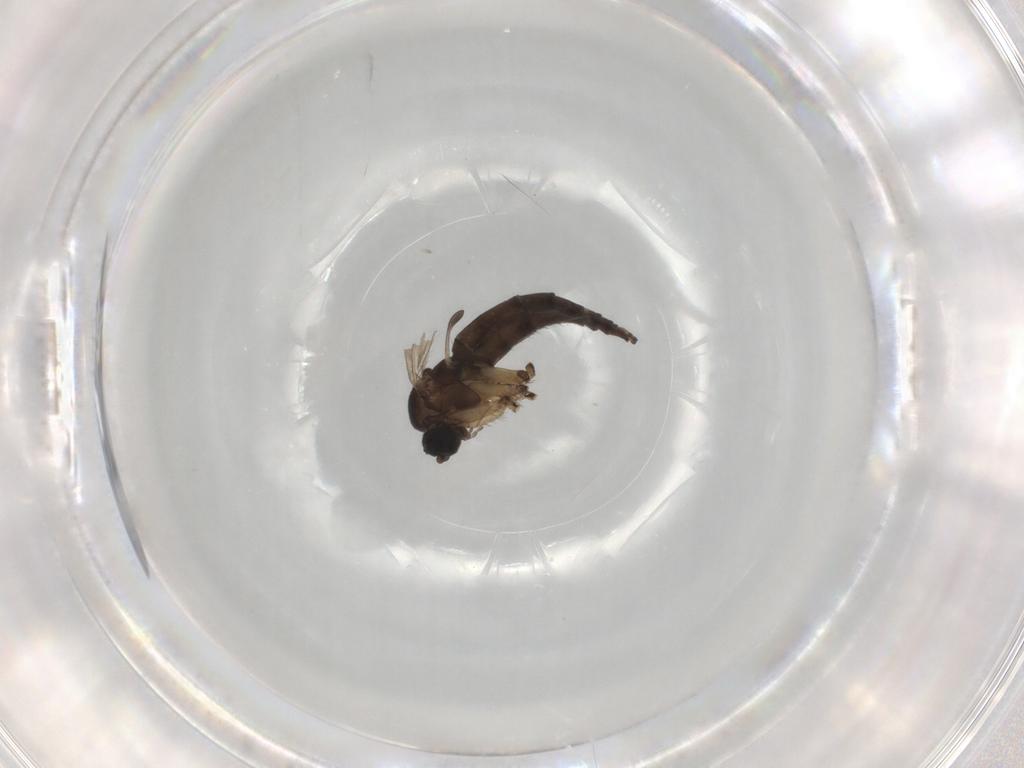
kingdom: Animalia
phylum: Arthropoda
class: Insecta
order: Diptera
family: Sciaridae
